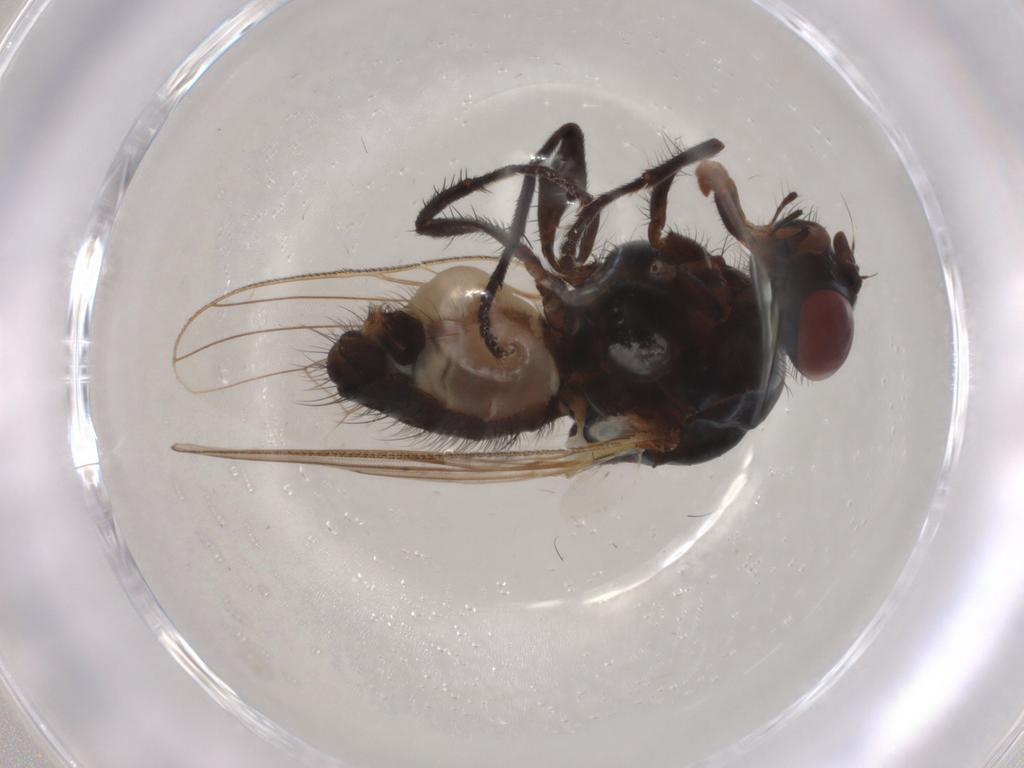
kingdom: Animalia
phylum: Arthropoda
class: Insecta
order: Diptera
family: Anthomyiidae
